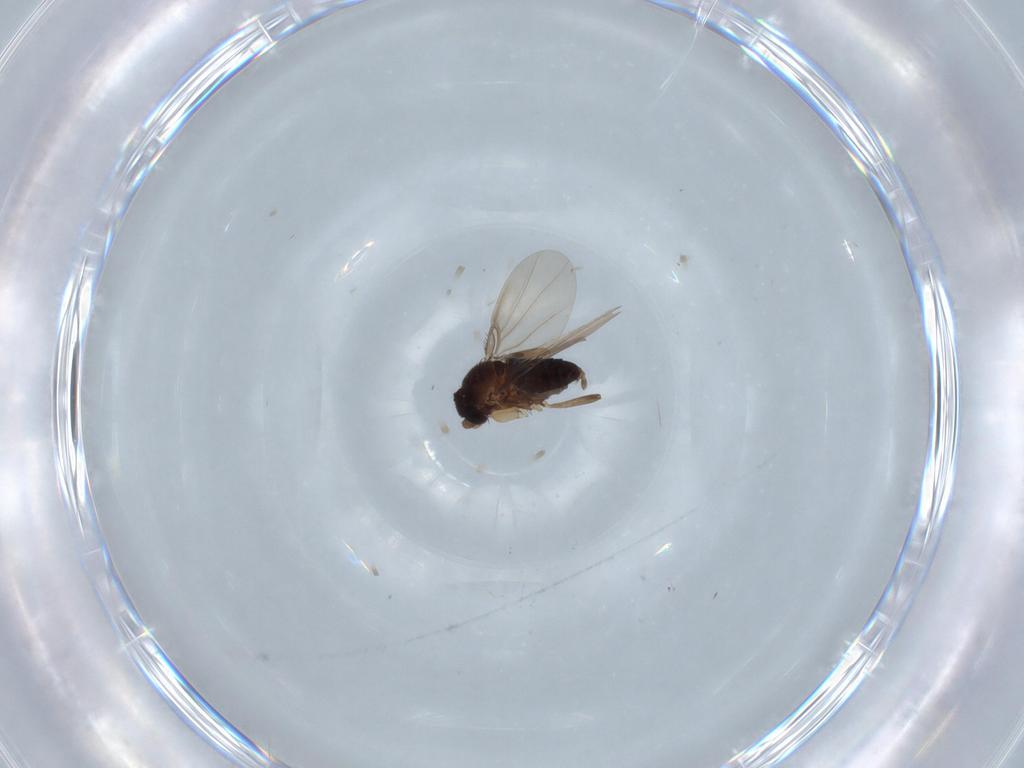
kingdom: Animalia
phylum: Arthropoda
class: Insecta
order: Diptera
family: Phoridae
